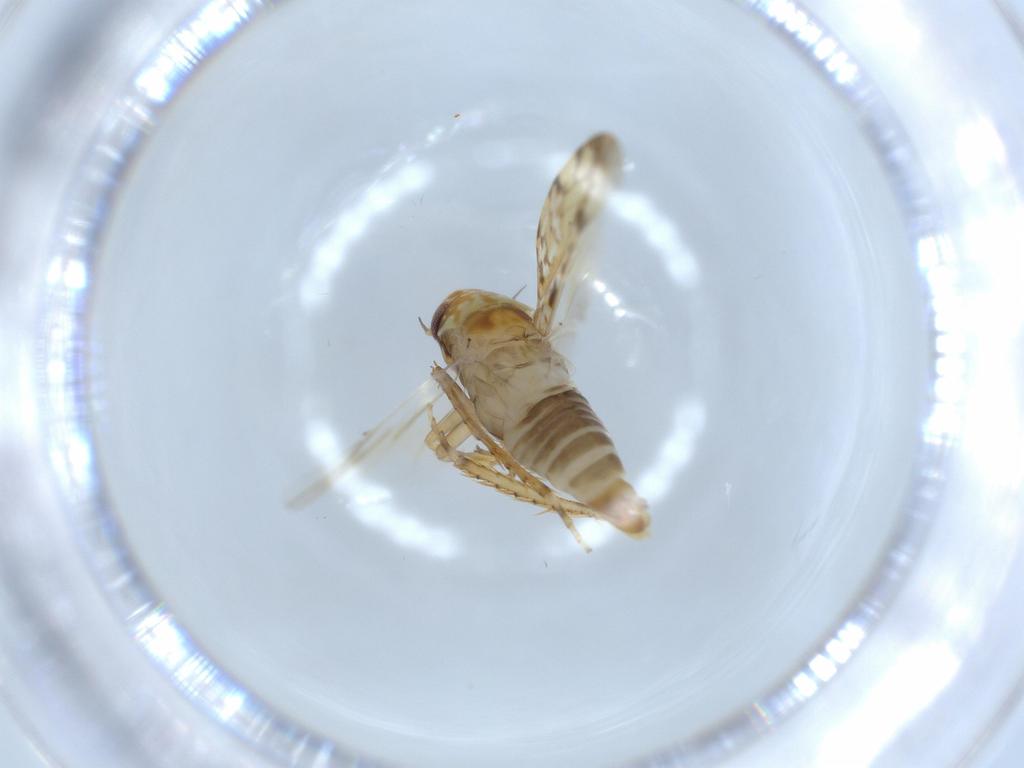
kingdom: Animalia
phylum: Arthropoda
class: Insecta
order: Hemiptera
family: Cicadellidae
